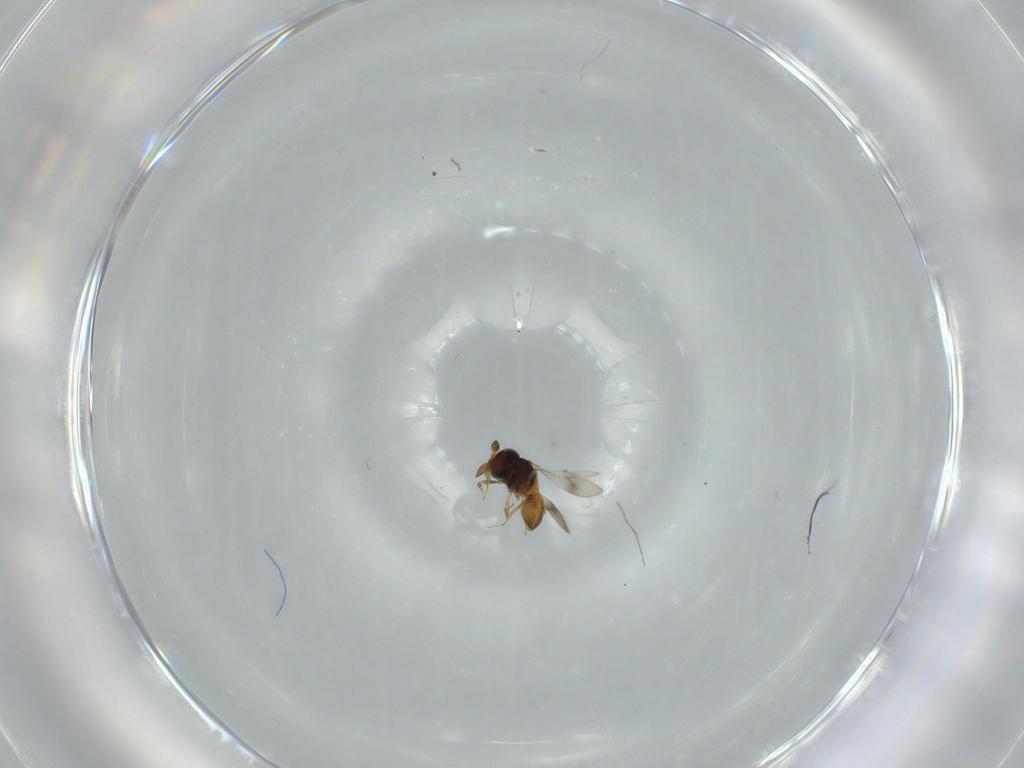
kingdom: Animalia
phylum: Arthropoda
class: Insecta
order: Hymenoptera
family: Scelionidae
